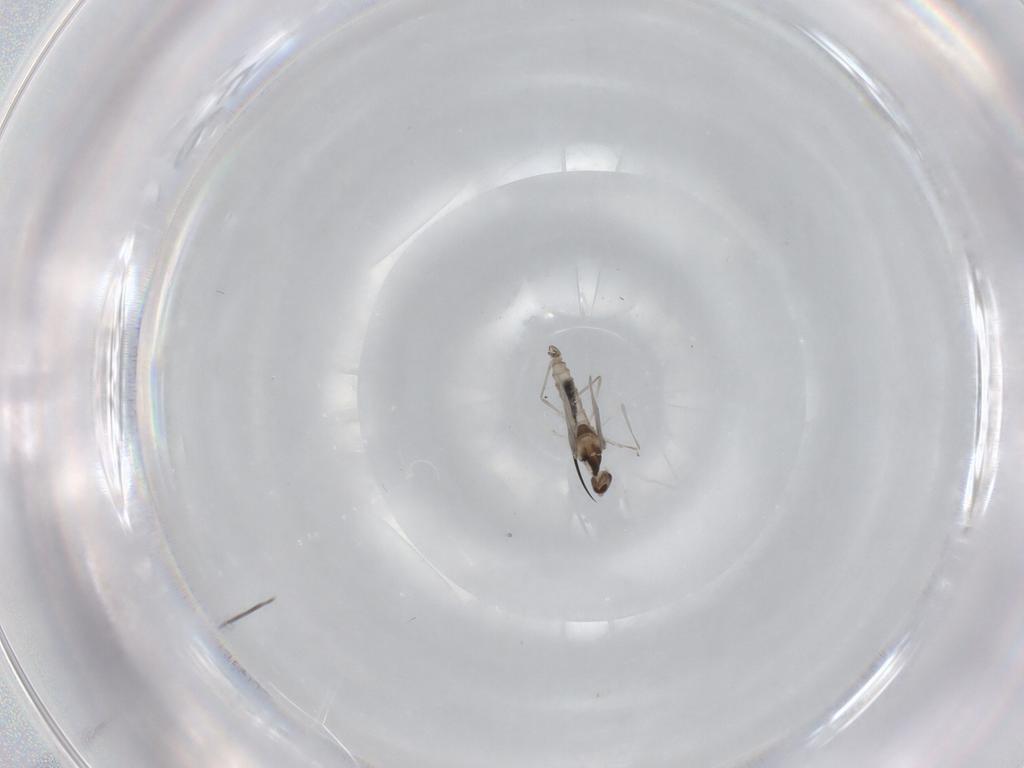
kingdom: Animalia
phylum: Arthropoda
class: Insecta
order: Diptera
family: Cecidomyiidae
